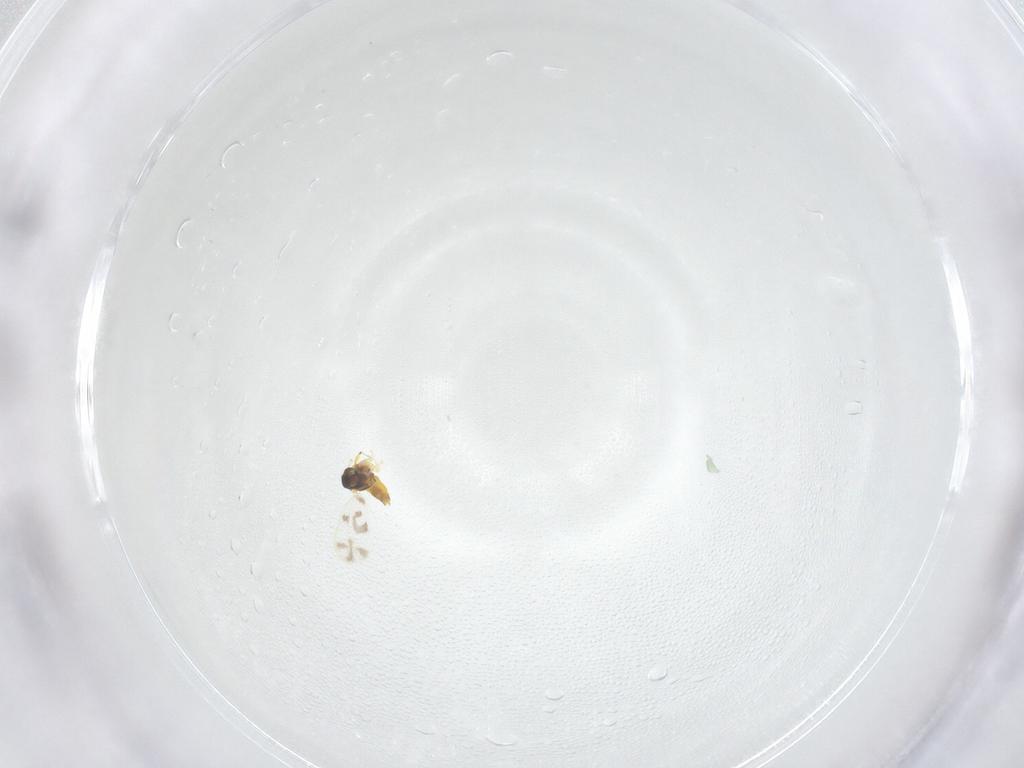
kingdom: Animalia
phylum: Arthropoda
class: Insecta
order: Hemiptera
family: Aleyrodidae
